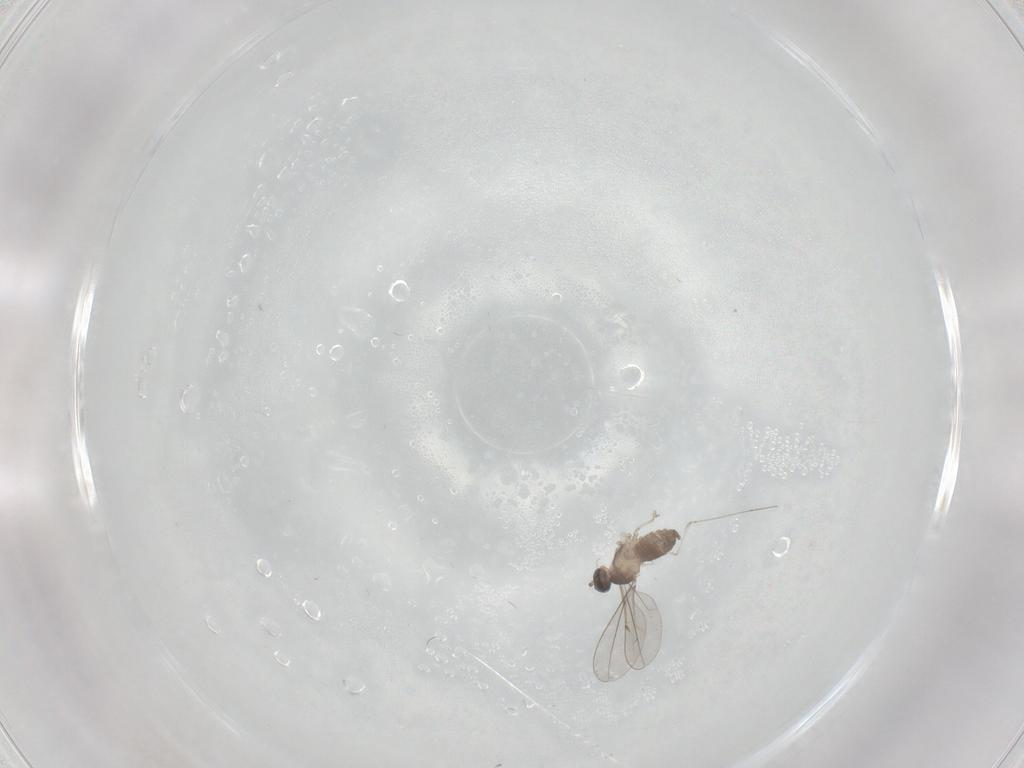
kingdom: Animalia
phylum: Arthropoda
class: Insecta
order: Diptera
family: Cecidomyiidae
